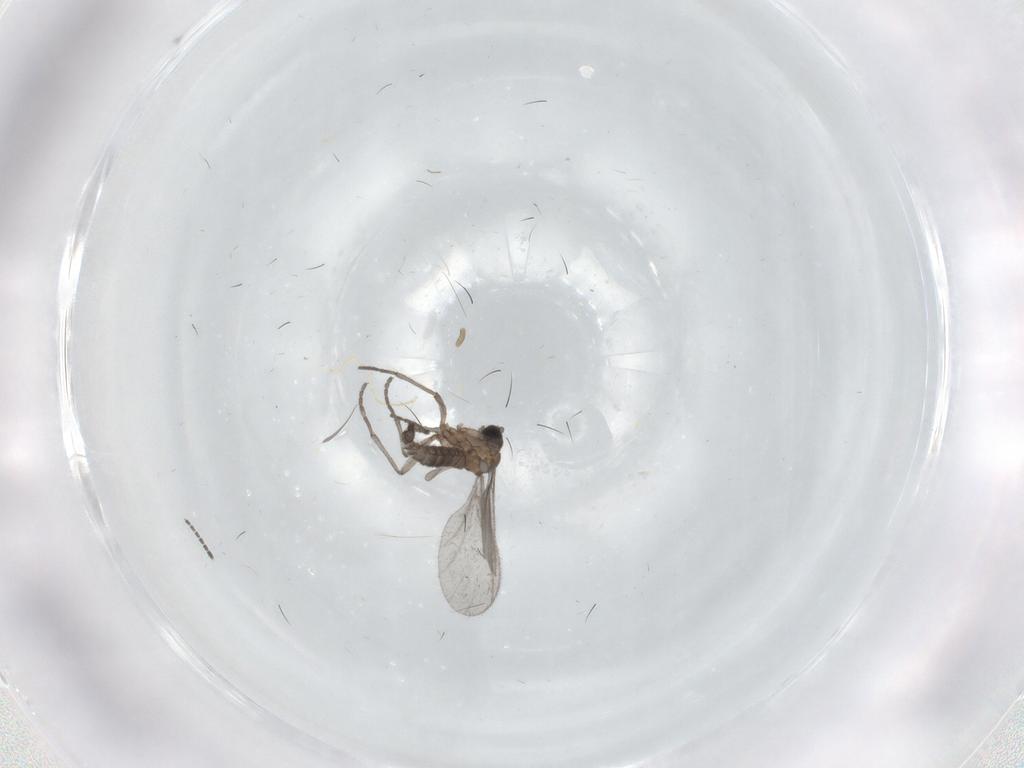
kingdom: Animalia
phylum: Arthropoda
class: Insecta
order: Diptera
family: Sciaridae
